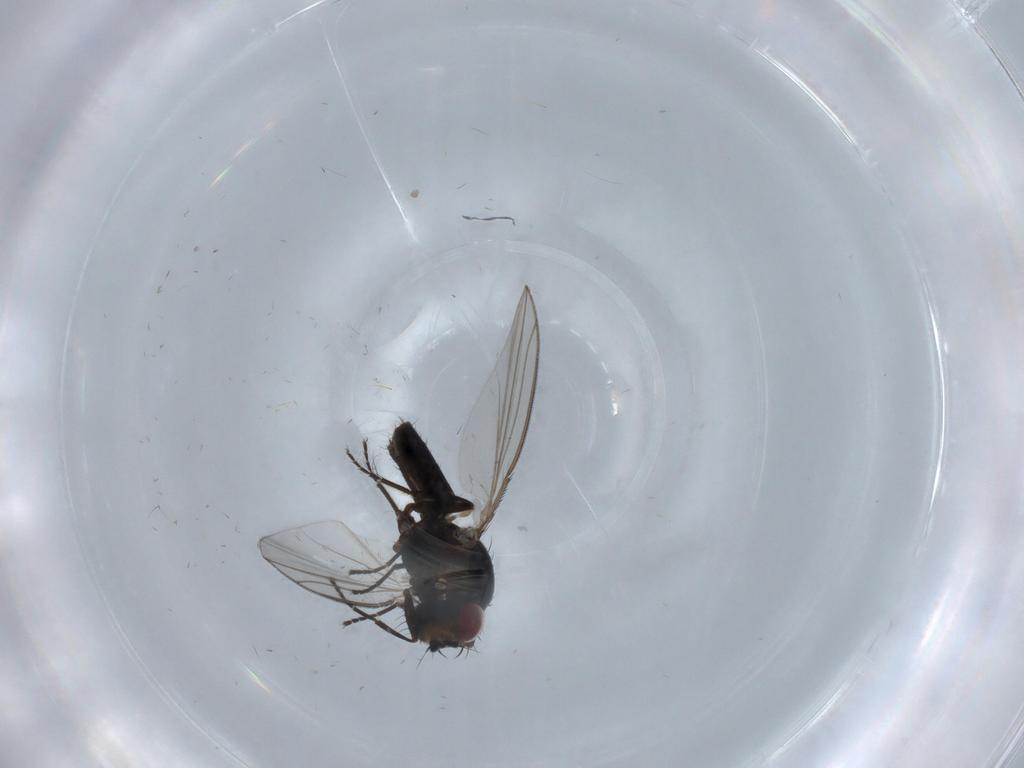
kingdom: Animalia
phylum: Arthropoda
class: Insecta
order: Diptera
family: Carnidae
